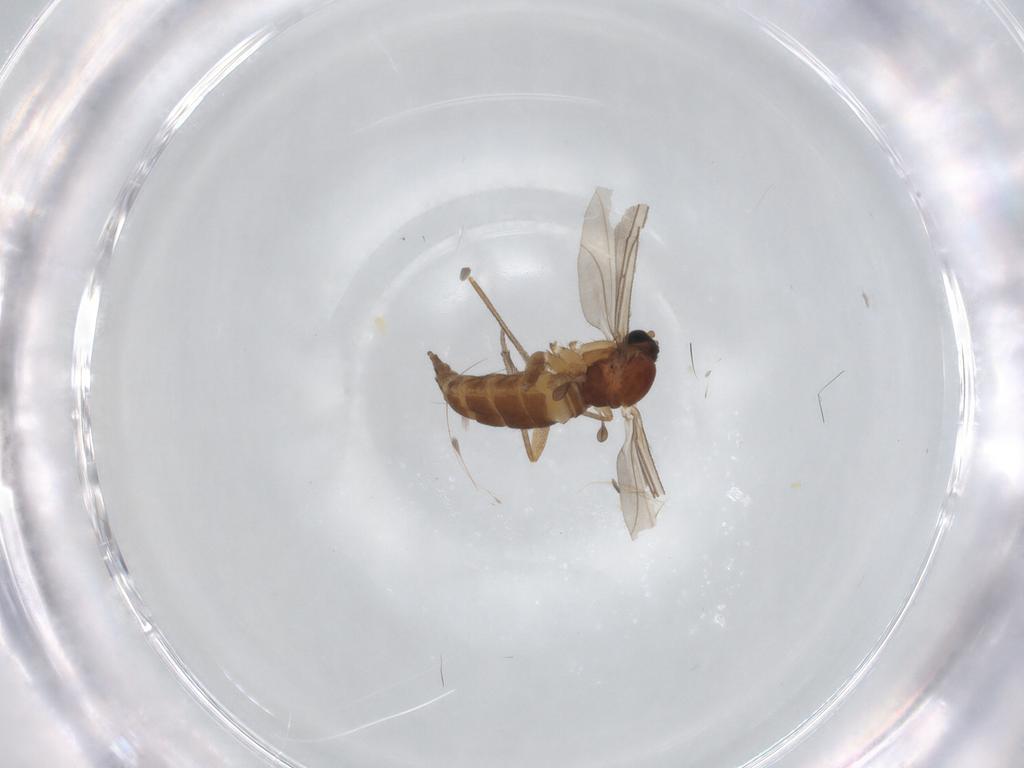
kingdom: Animalia
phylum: Arthropoda
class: Insecta
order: Diptera
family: Sciaridae
